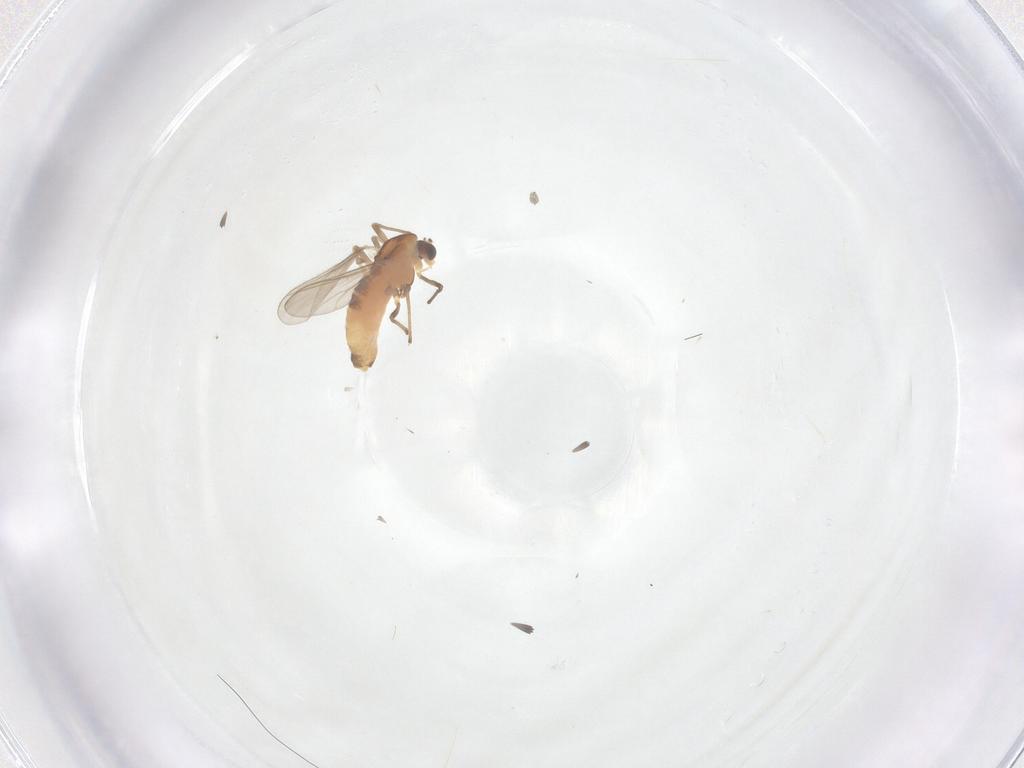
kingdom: Animalia
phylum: Arthropoda
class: Insecta
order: Diptera
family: Chironomidae
